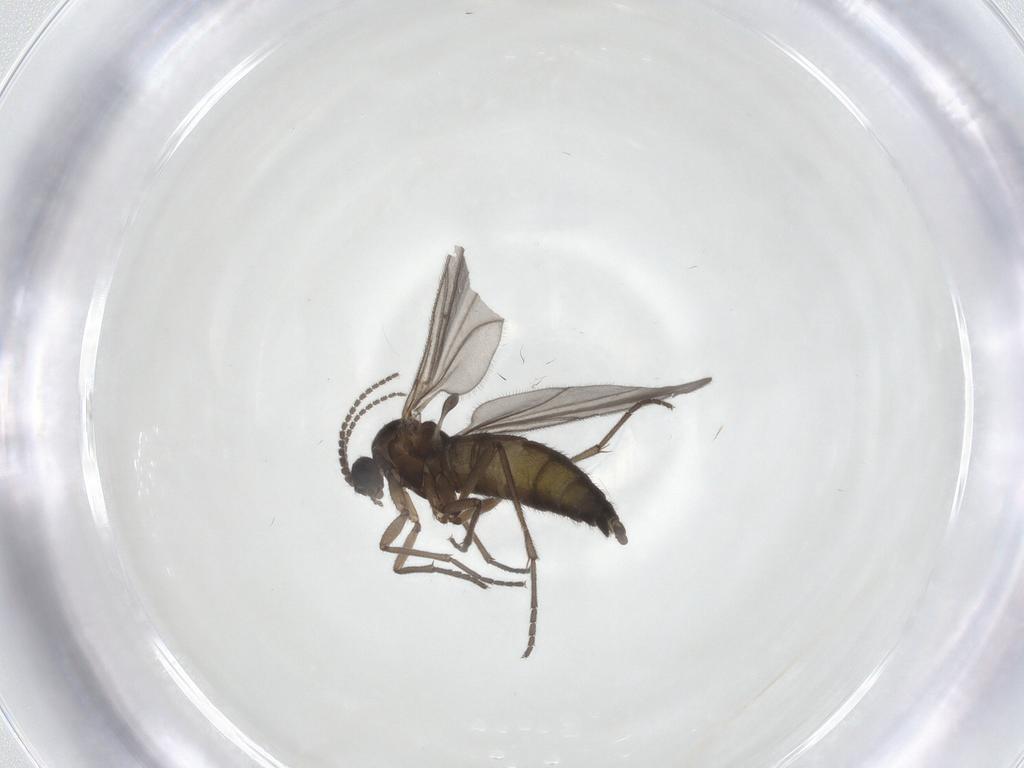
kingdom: Animalia
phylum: Arthropoda
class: Insecta
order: Diptera
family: Sciaridae
